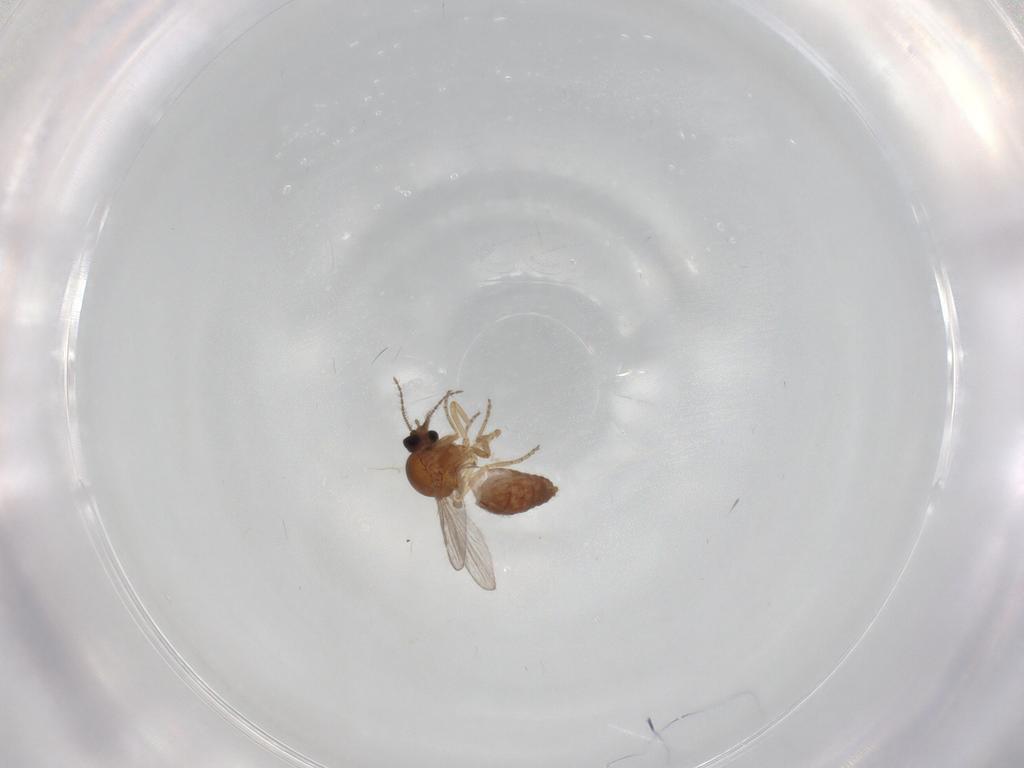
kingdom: Animalia
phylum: Arthropoda
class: Insecta
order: Diptera
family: Ceratopogonidae
